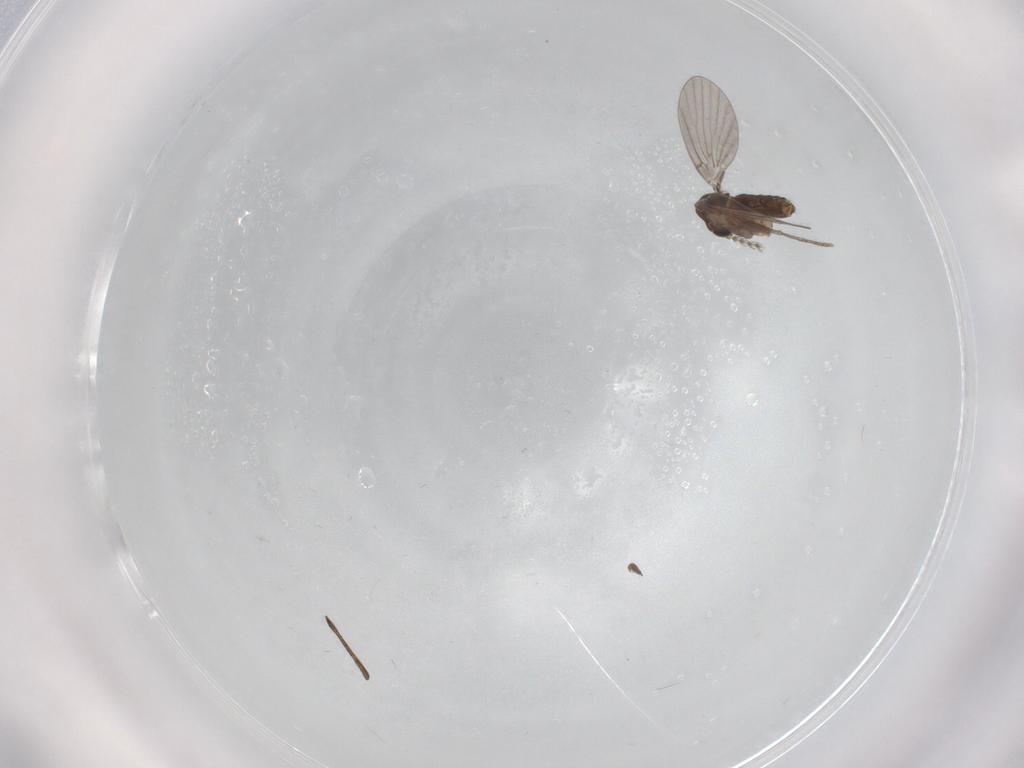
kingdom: Animalia
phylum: Arthropoda
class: Insecta
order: Diptera
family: Psychodidae
